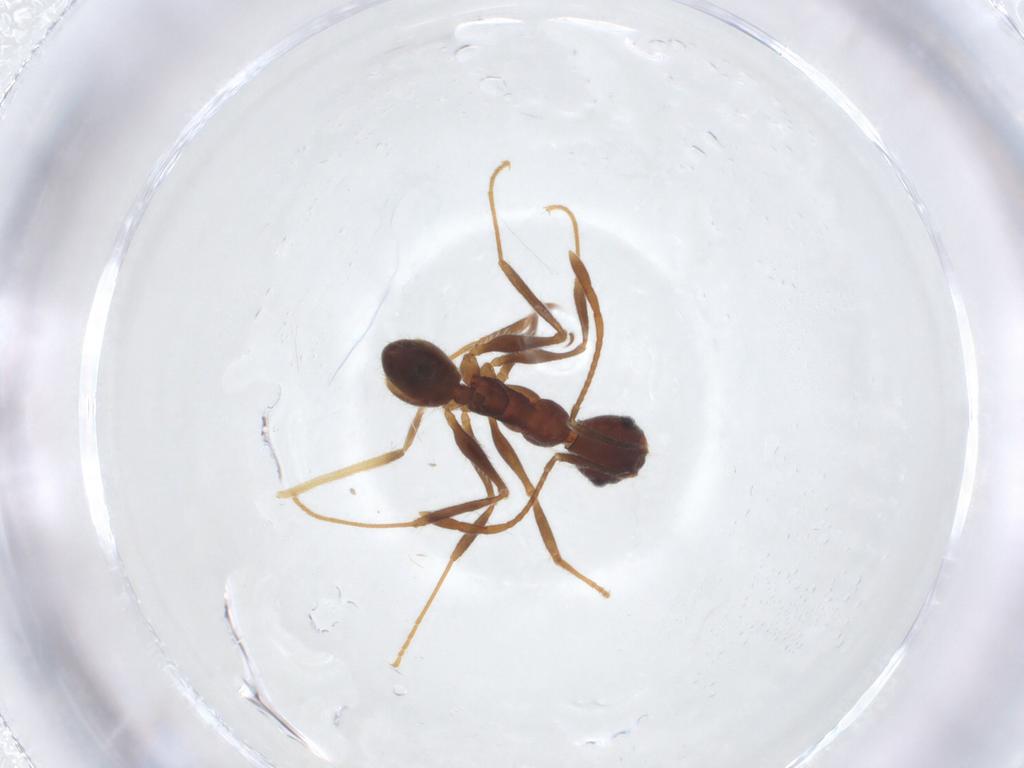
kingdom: Animalia
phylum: Arthropoda
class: Insecta
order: Hymenoptera
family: Formicidae
